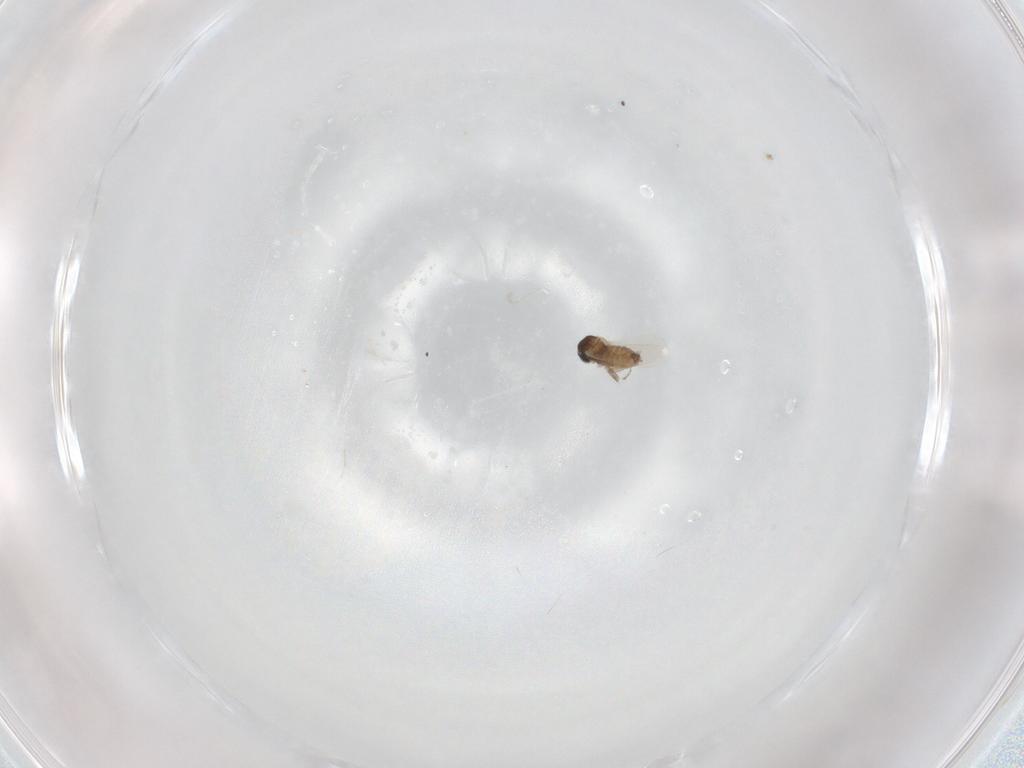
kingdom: Animalia
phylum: Arthropoda
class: Insecta
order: Diptera
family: Cecidomyiidae
